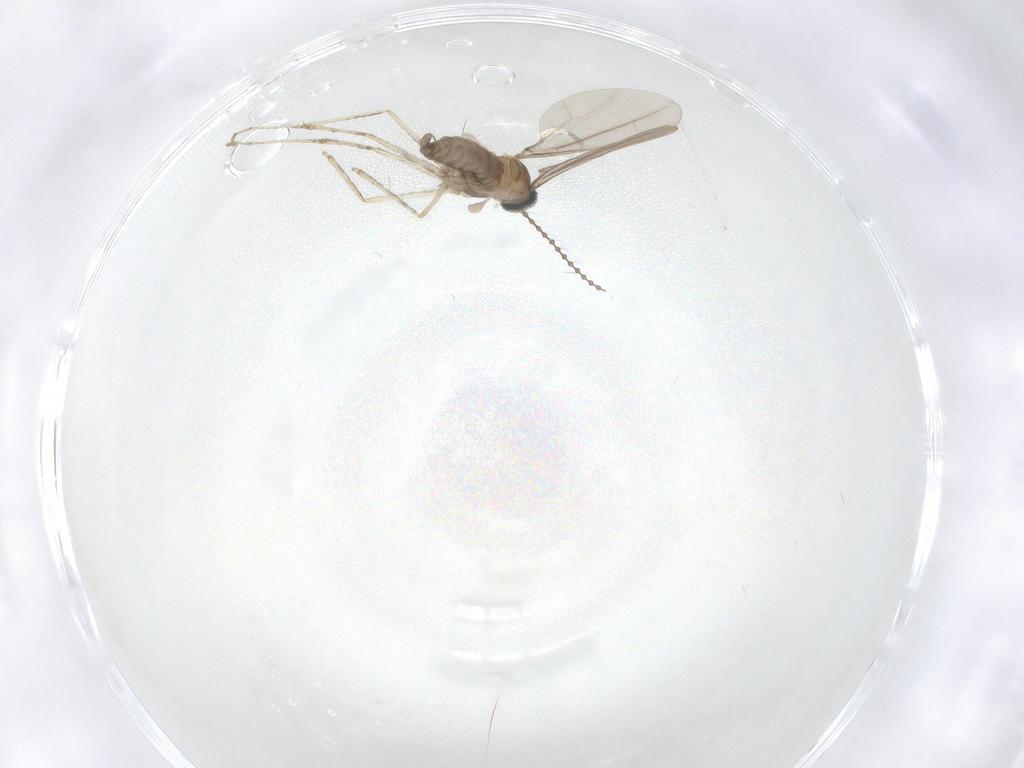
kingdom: Animalia
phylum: Arthropoda
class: Insecta
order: Diptera
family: Cecidomyiidae
